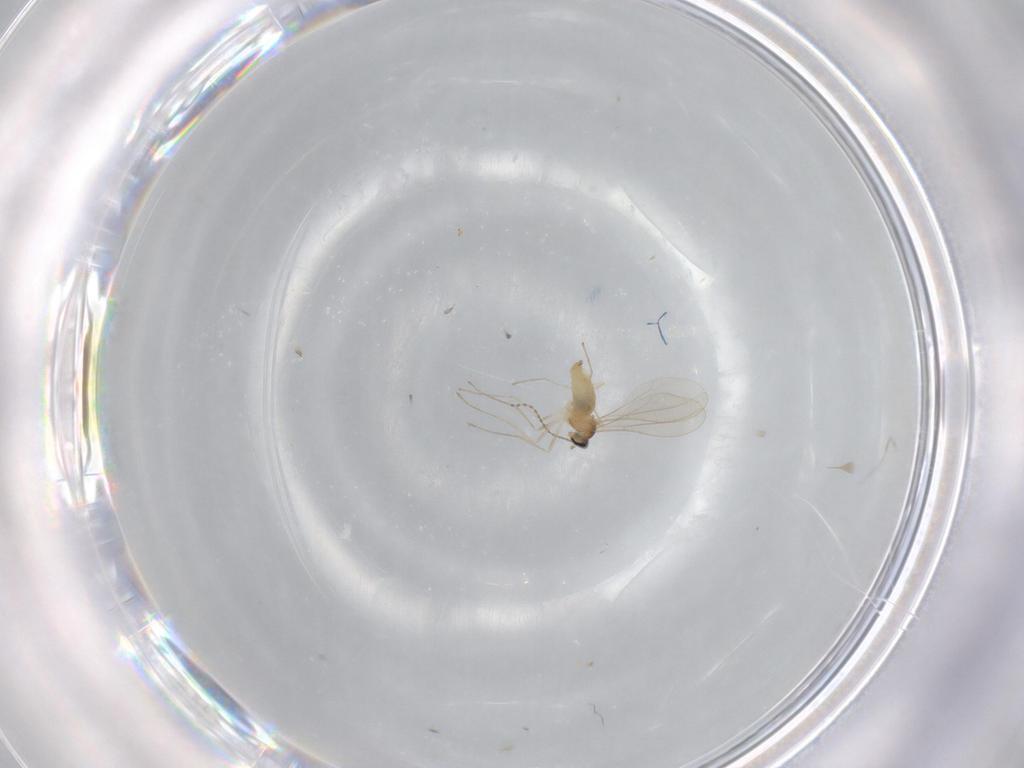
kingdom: Animalia
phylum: Arthropoda
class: Insecta
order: Diptera
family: Cecidomyiidae
